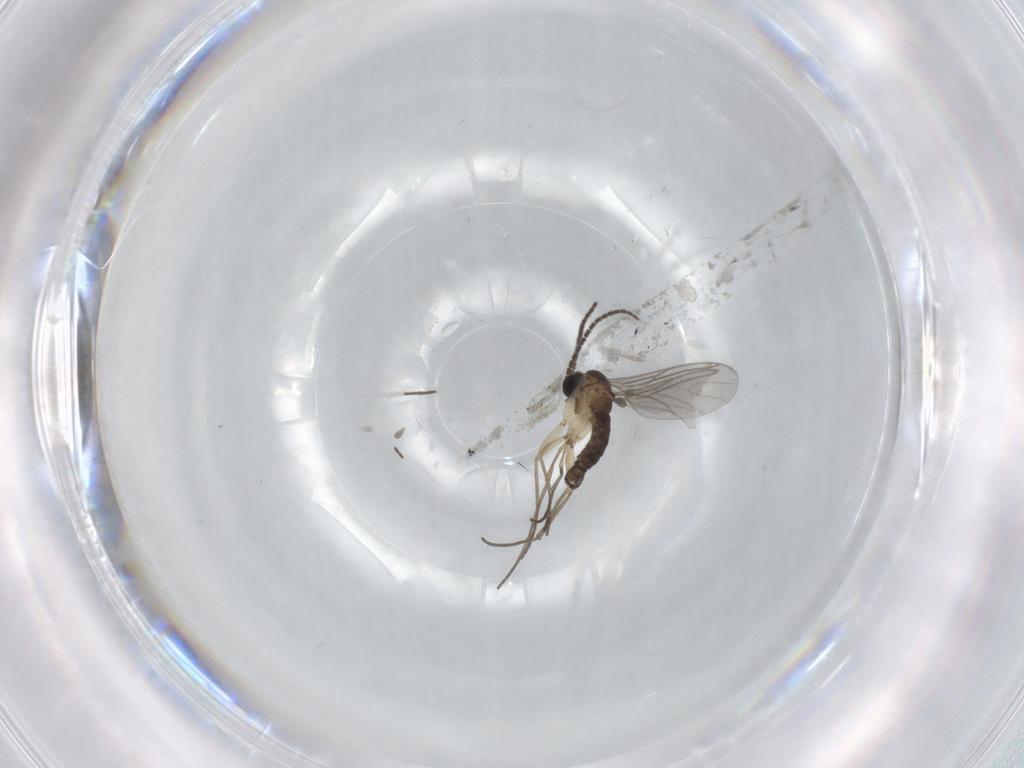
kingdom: Animalia
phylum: Arthropoda
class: Insecta
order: Diptera
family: Sciaridae
